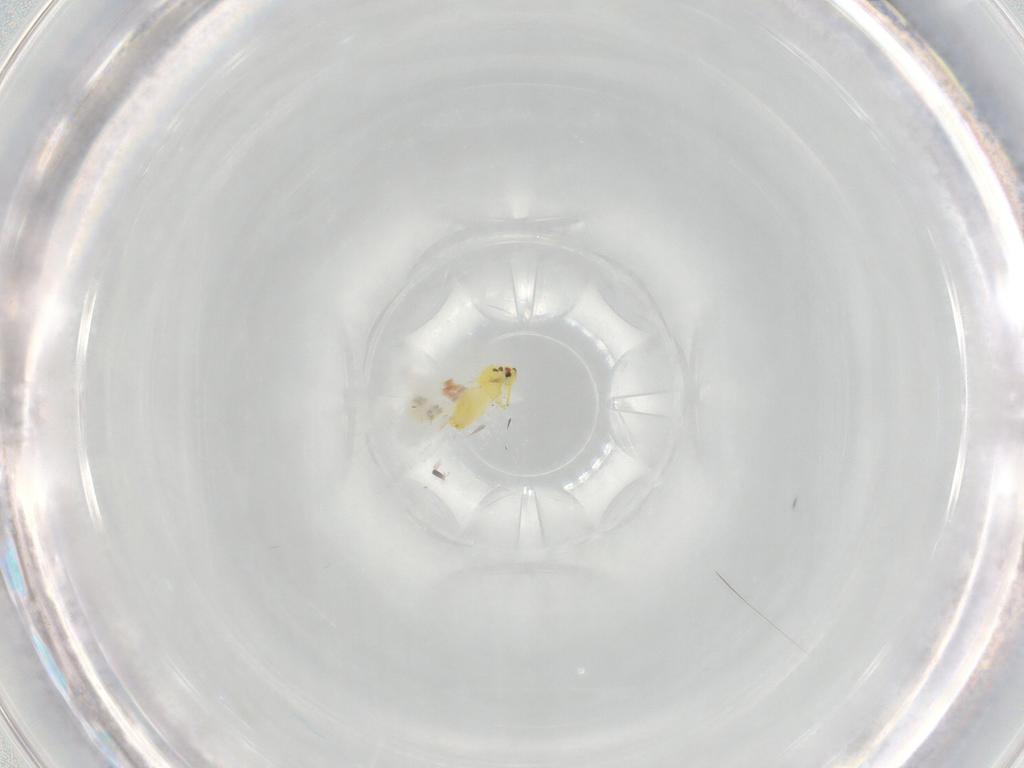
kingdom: Animalia
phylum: Arthropoda
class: Insecta
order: Hemiptera
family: Aleyrodidae
